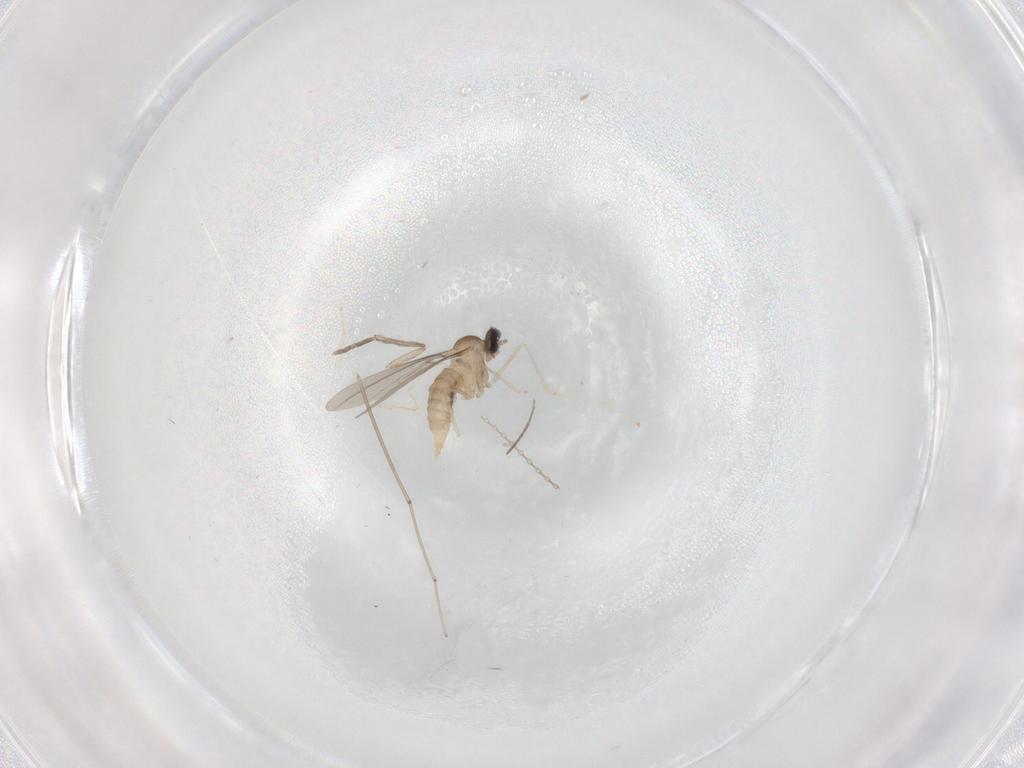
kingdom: Animalia
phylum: Arthropoda
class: Insecta
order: Diptera
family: Cecidomyiidae
